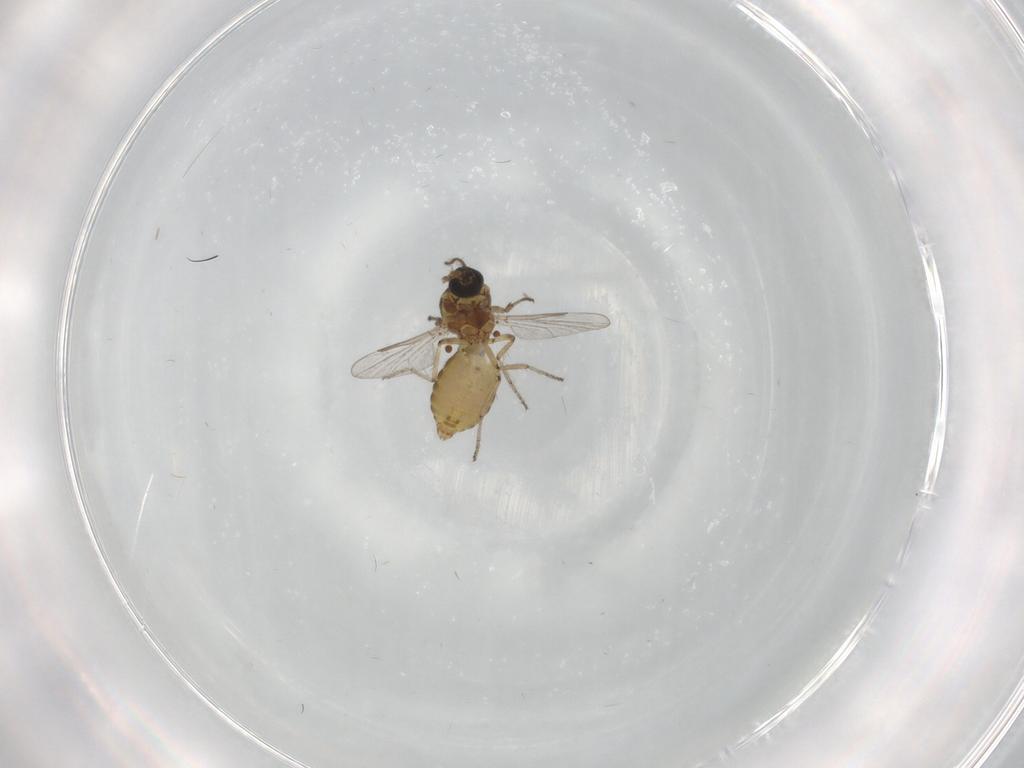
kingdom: Animalia
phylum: Arthropoda
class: Insecta
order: Diptera
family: Ceratopogonidae
